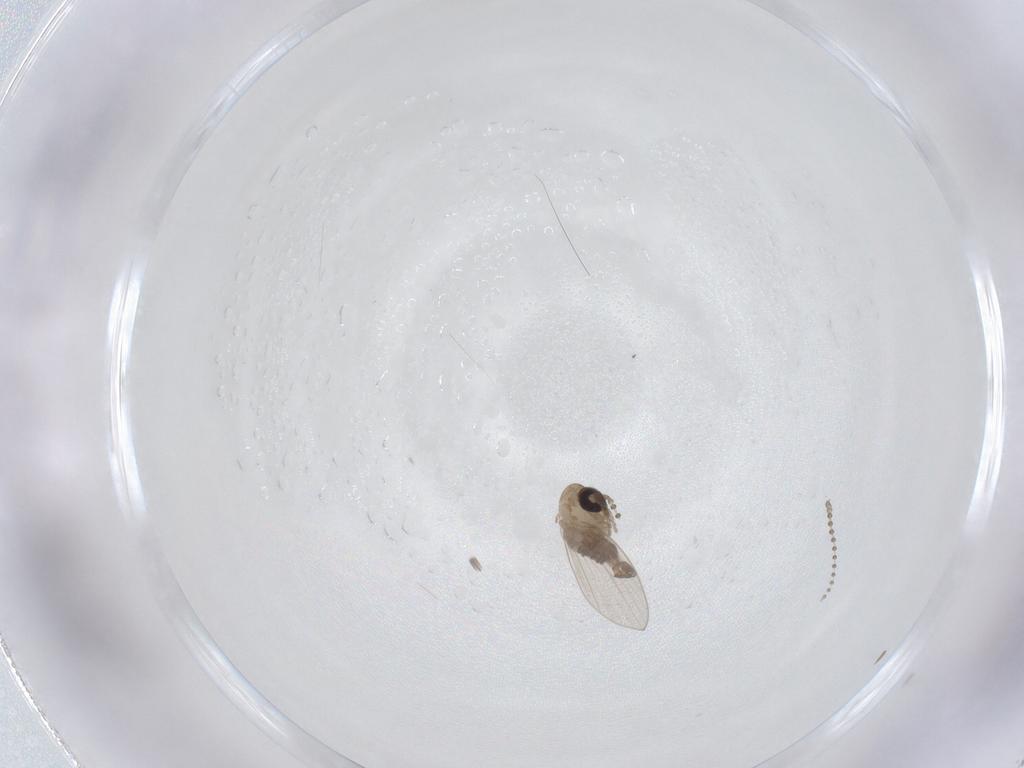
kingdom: Animalia
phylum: Arthropoda
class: Insecta
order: Diptera
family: Psychodidae
